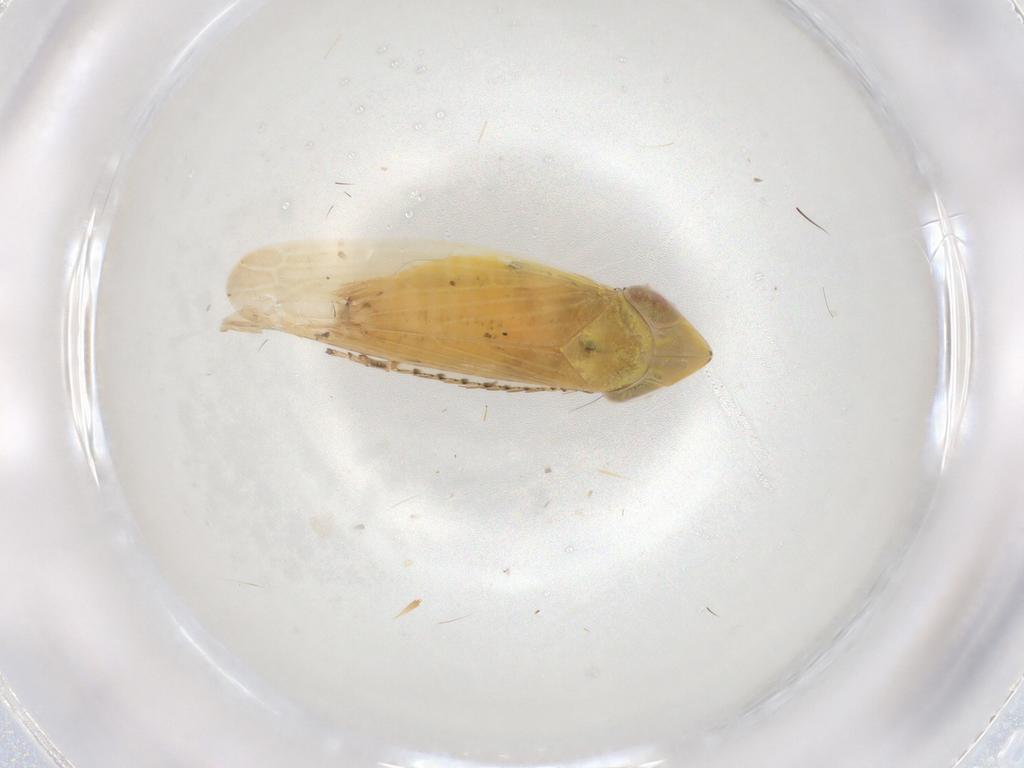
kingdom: Animalia
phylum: Arthropoda
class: Insecta
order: Hemiptera
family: Cicadellidae
